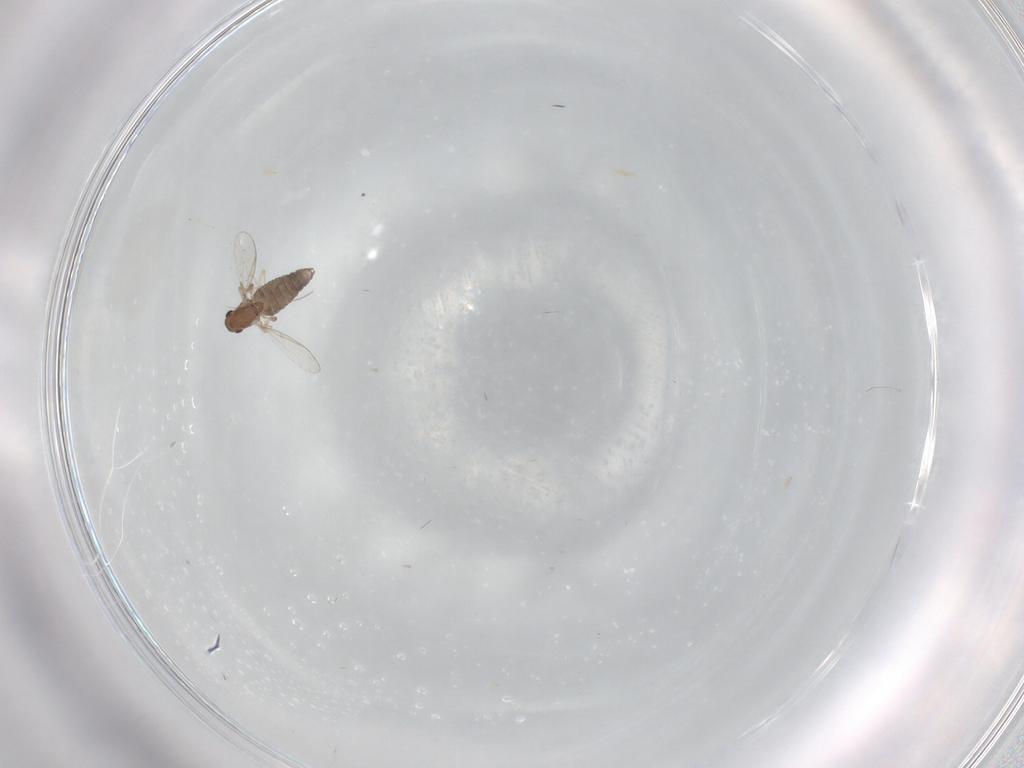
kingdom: Animalia
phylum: Arthropoda
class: Insecta
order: Diptera
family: Chironomidae
